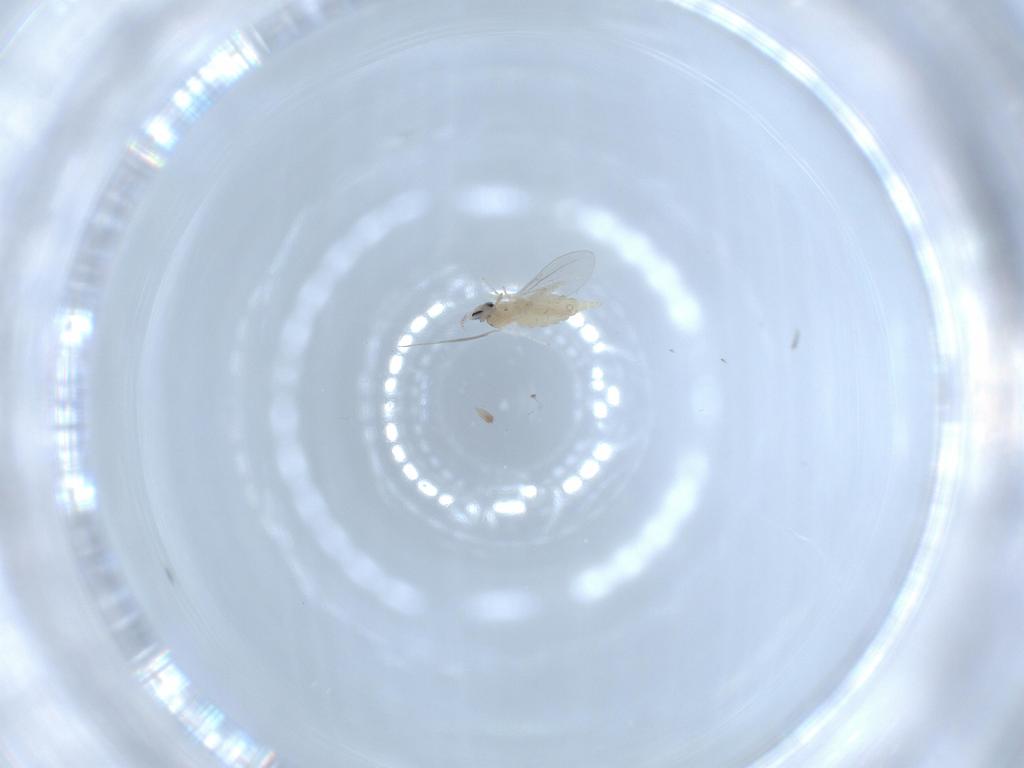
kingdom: Animalia
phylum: Arthropoda
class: Insecta
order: Diptera
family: Cecidomyiidae
